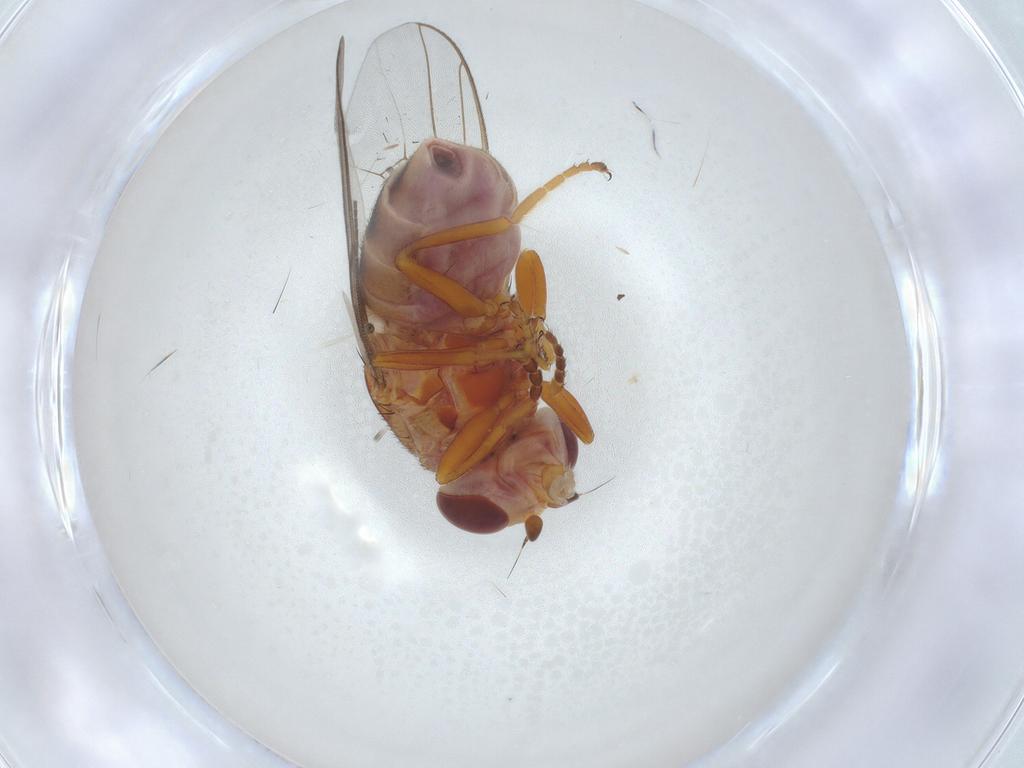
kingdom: Animalia
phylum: Arthropoda
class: Insecta
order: Diptera
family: Chloropidae
